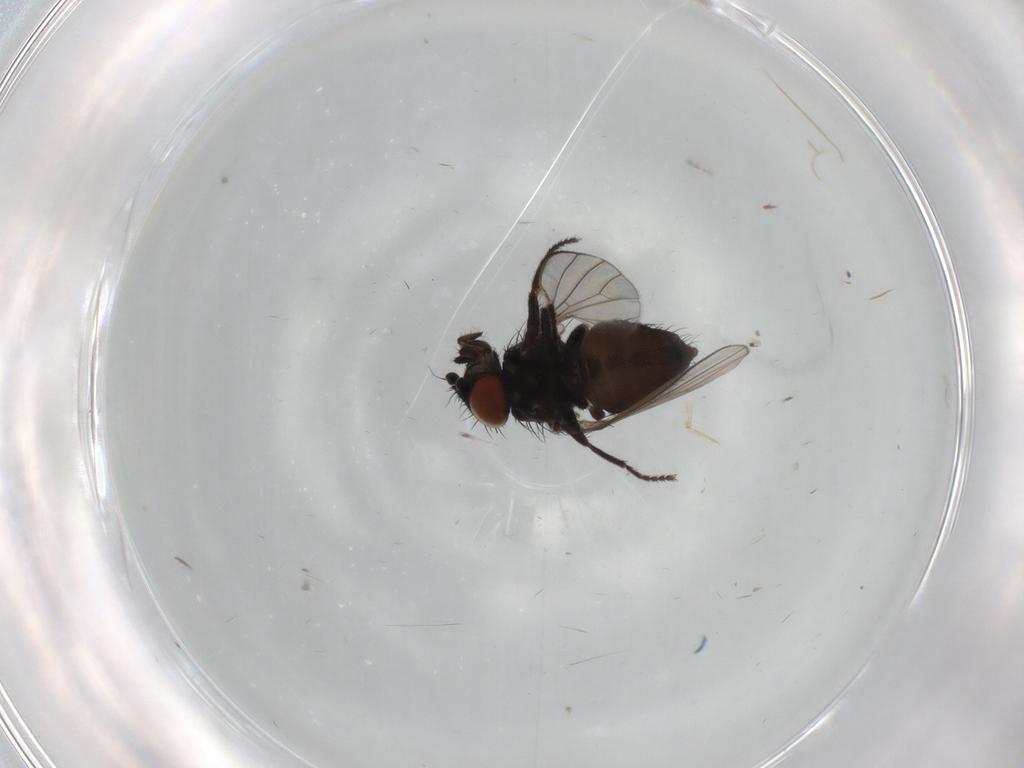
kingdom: Animalia
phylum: Arthropoda
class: Insecta
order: Diptera
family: Milichiidae
